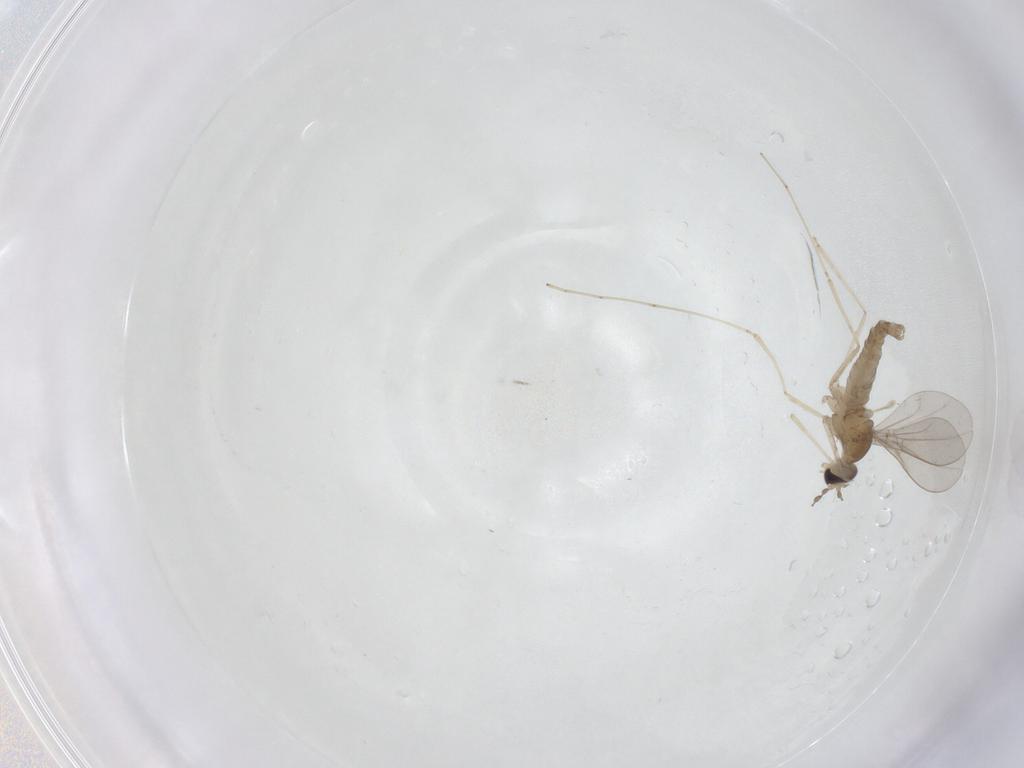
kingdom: Animalia
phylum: Arthropoda
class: Insecta
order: Diptera
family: Cecidomyiidae
